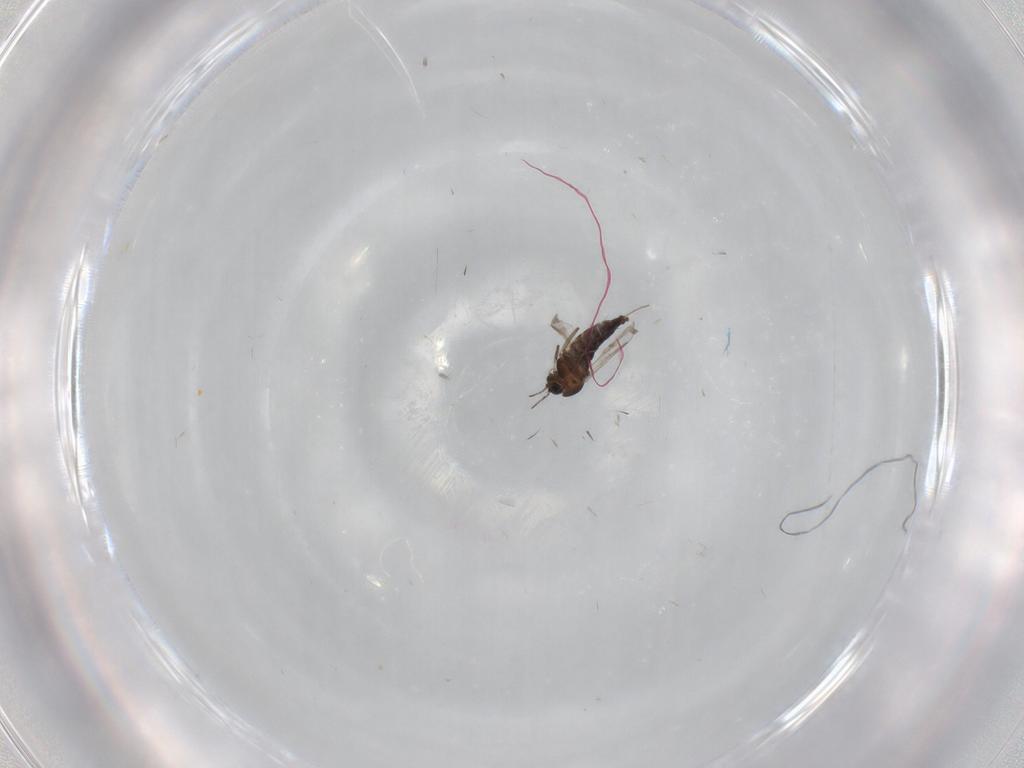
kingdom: Animalia
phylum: Arthropoda
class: Insecta
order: Diptera
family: Chironomidae
